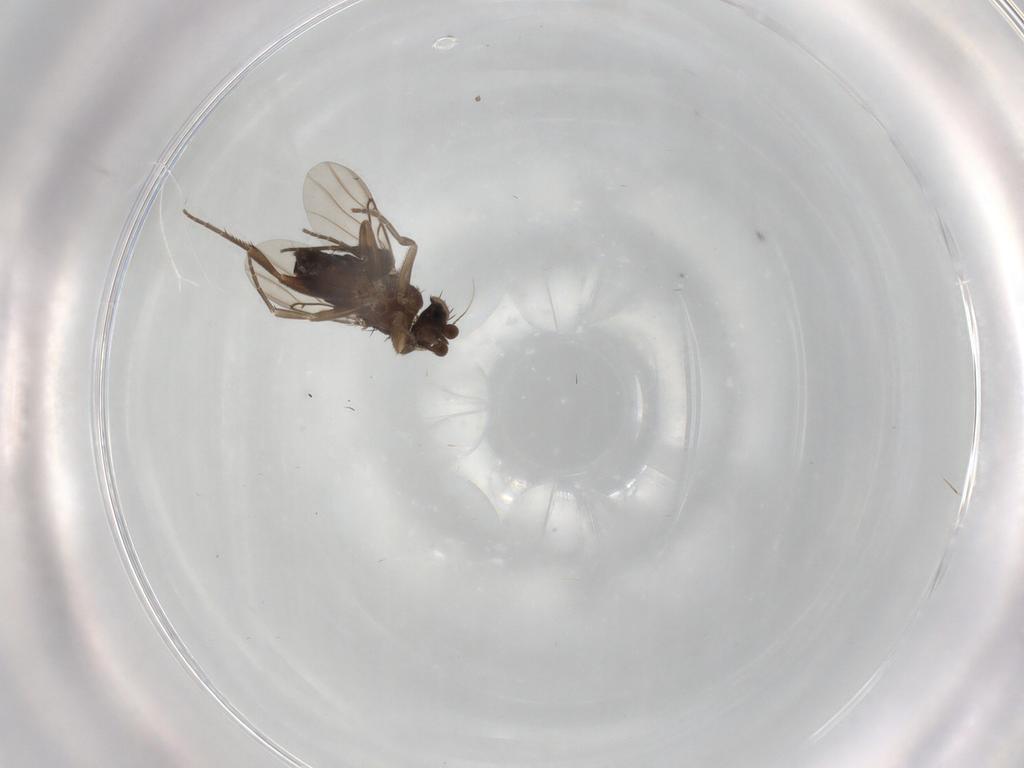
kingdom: Animalia
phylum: Arthropoda
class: Insecta
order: Diptera
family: Phoridae
